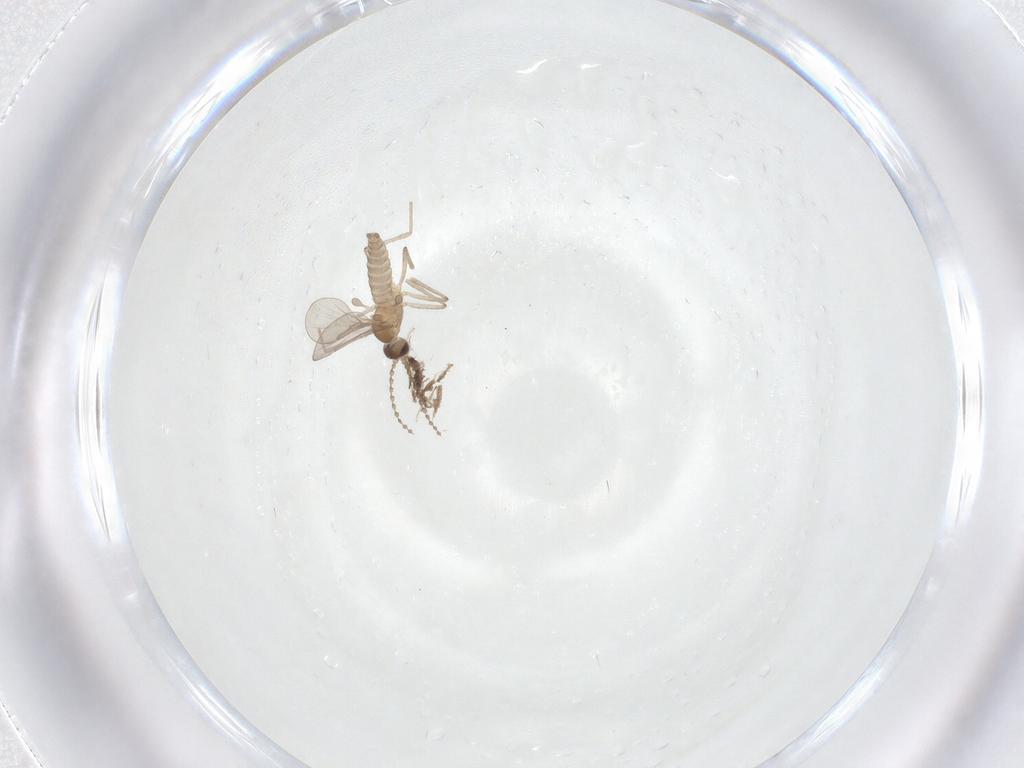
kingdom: Animalia
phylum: Arthropoda
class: Insecta
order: Diptera
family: Cecidomyiidae
